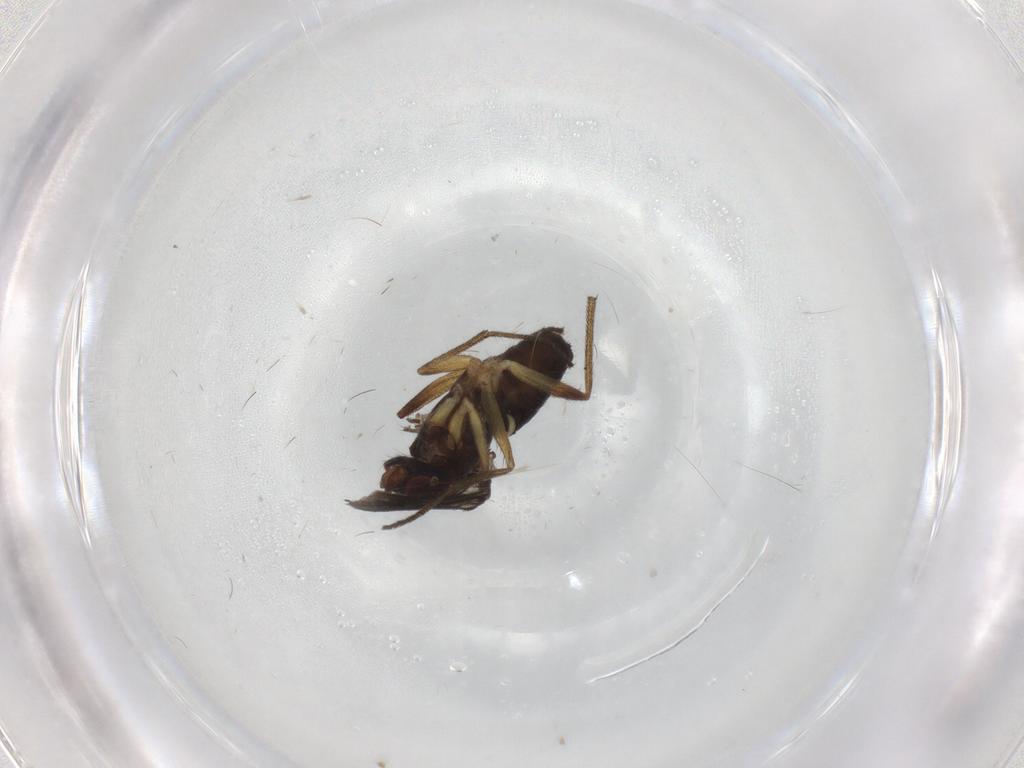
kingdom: Animalia
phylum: Arthropoda
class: Insecta
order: Diptera
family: Dolichopodidae
